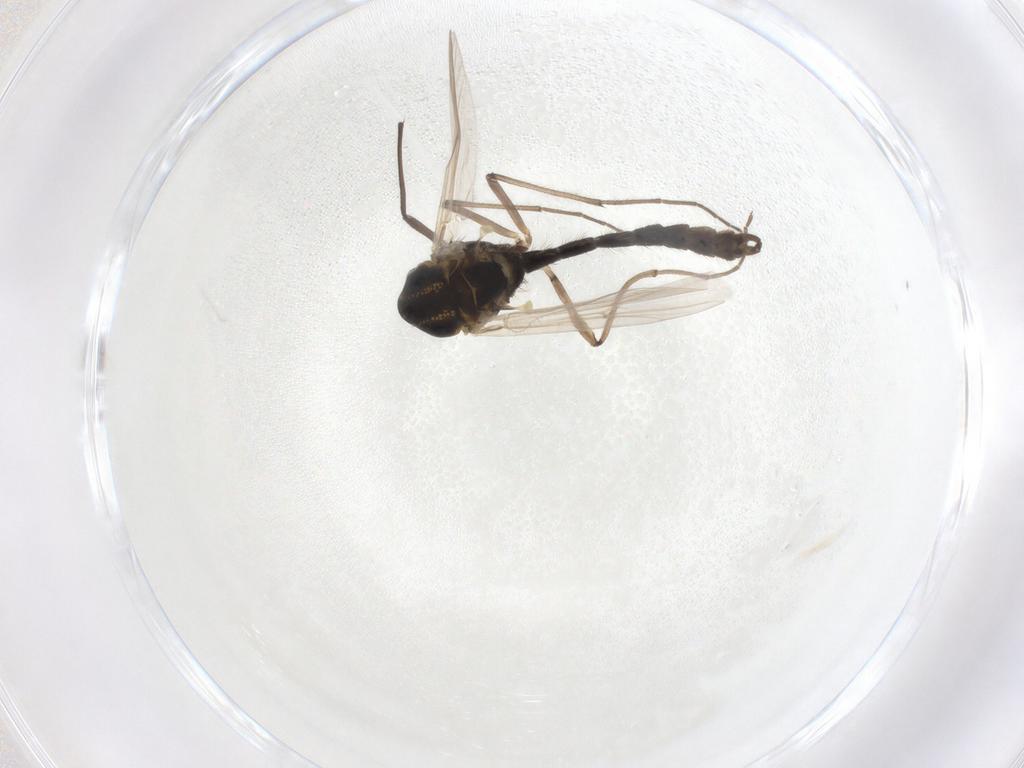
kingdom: Animalia
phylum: Arthropoda
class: Insecta
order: Diptera
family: Chironomidae
